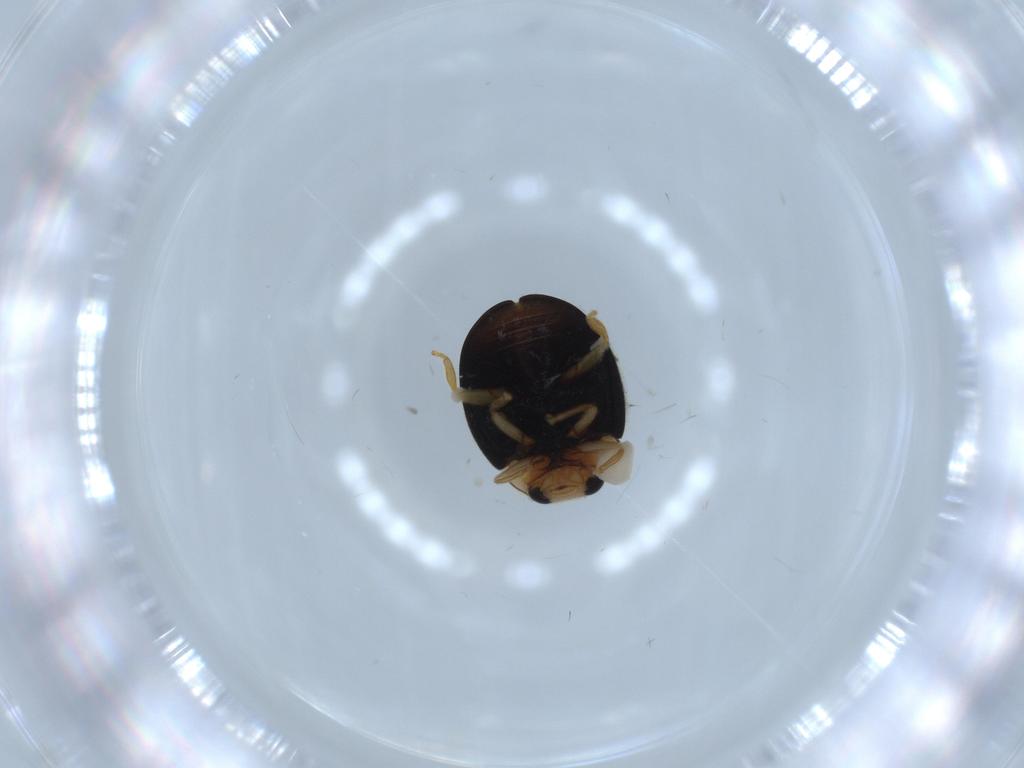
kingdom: Animalia
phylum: Arthropoda
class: Insecta
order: Coleoptera
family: Coccinellidae
